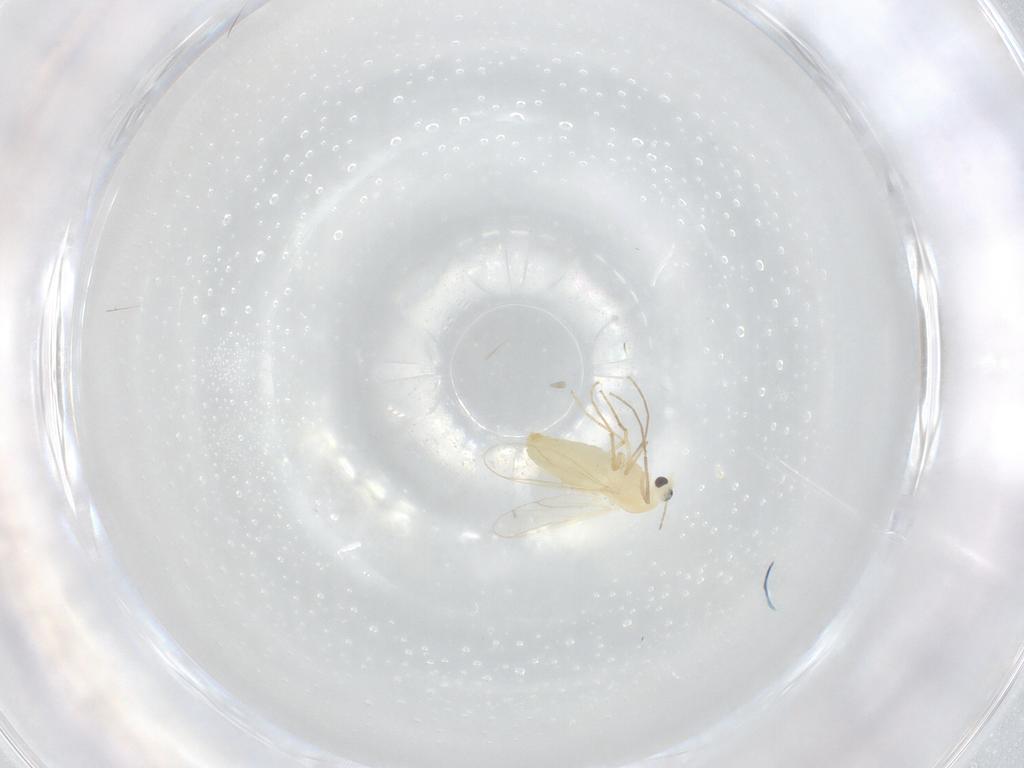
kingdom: Animalia
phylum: Arthropoda
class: Insecta
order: Diptera
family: Chironomidae
